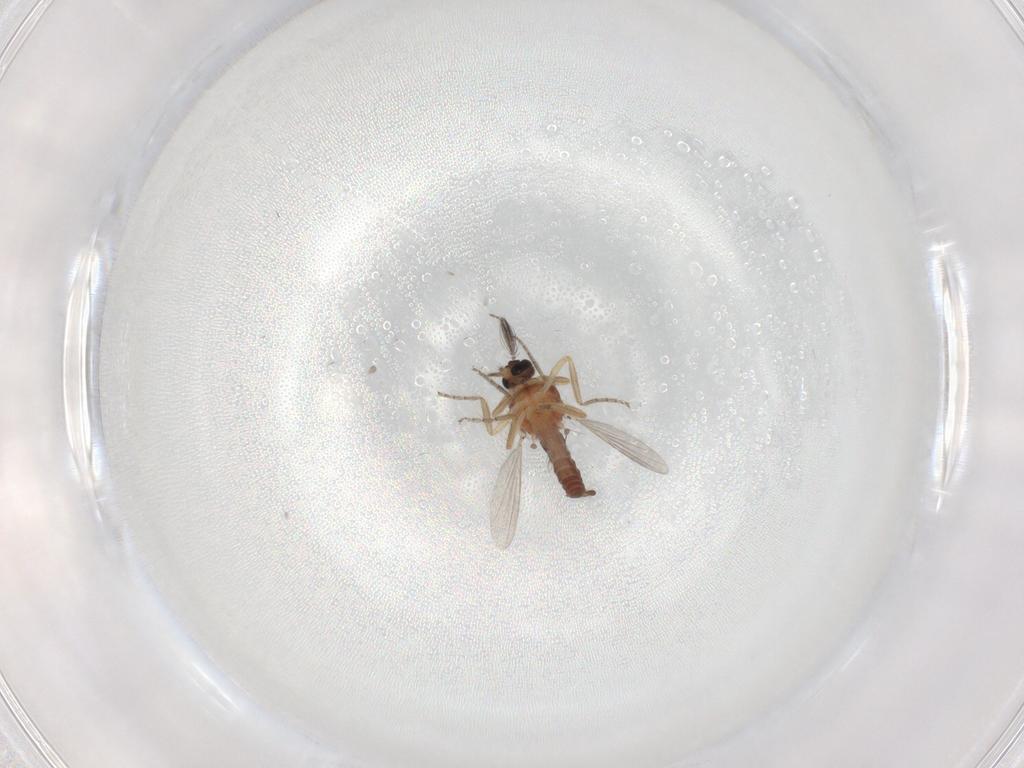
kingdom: Animalia
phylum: Arthropoda
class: Insecta
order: Diptera
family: Ceratopogonidae
